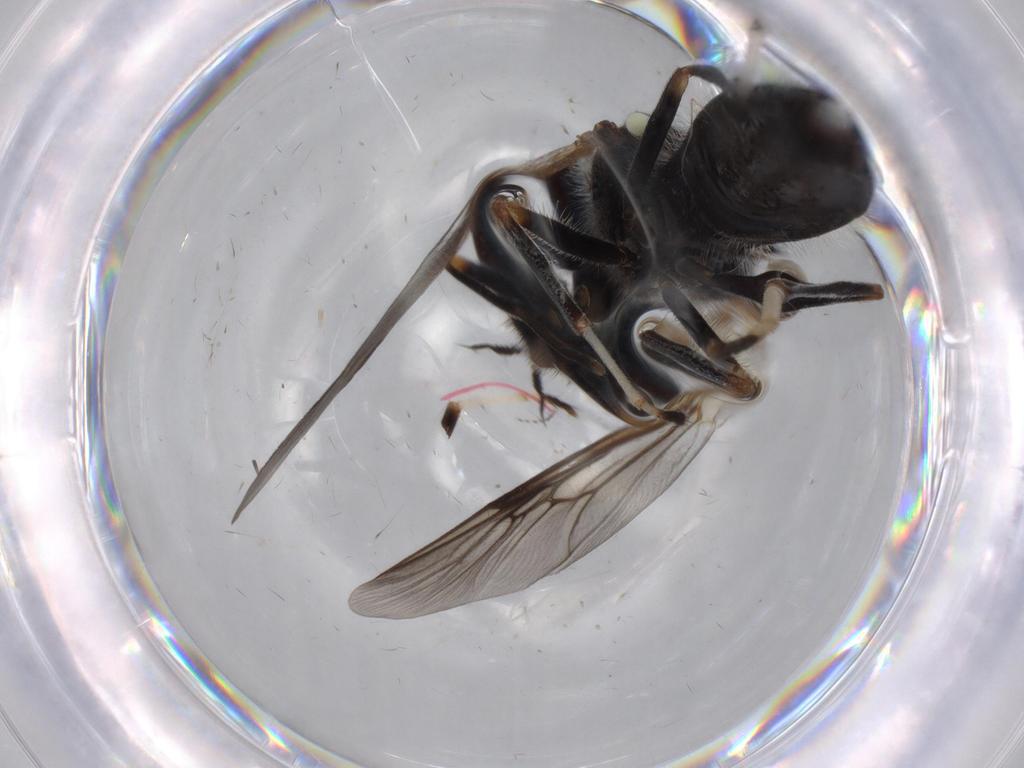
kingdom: Animalia
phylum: Arthropoda
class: Insecta
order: Diptera
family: Cecidomyiidae
